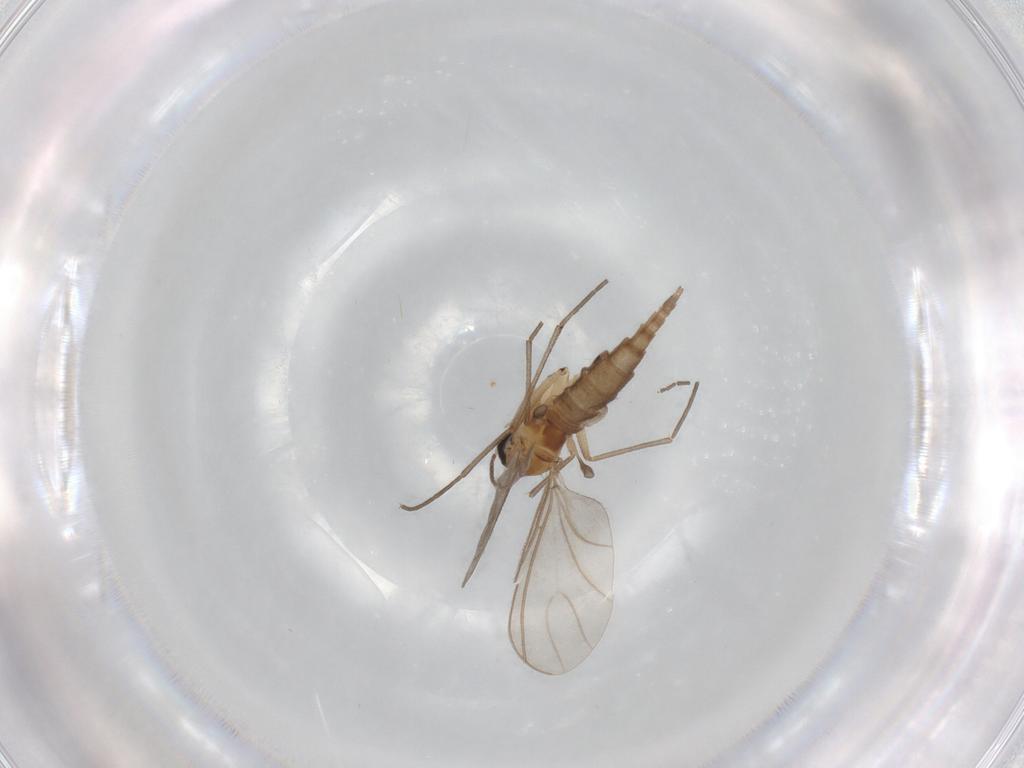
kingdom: Animalia
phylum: Arthropoda
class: Insecta
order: Diptera
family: Sciaridae
